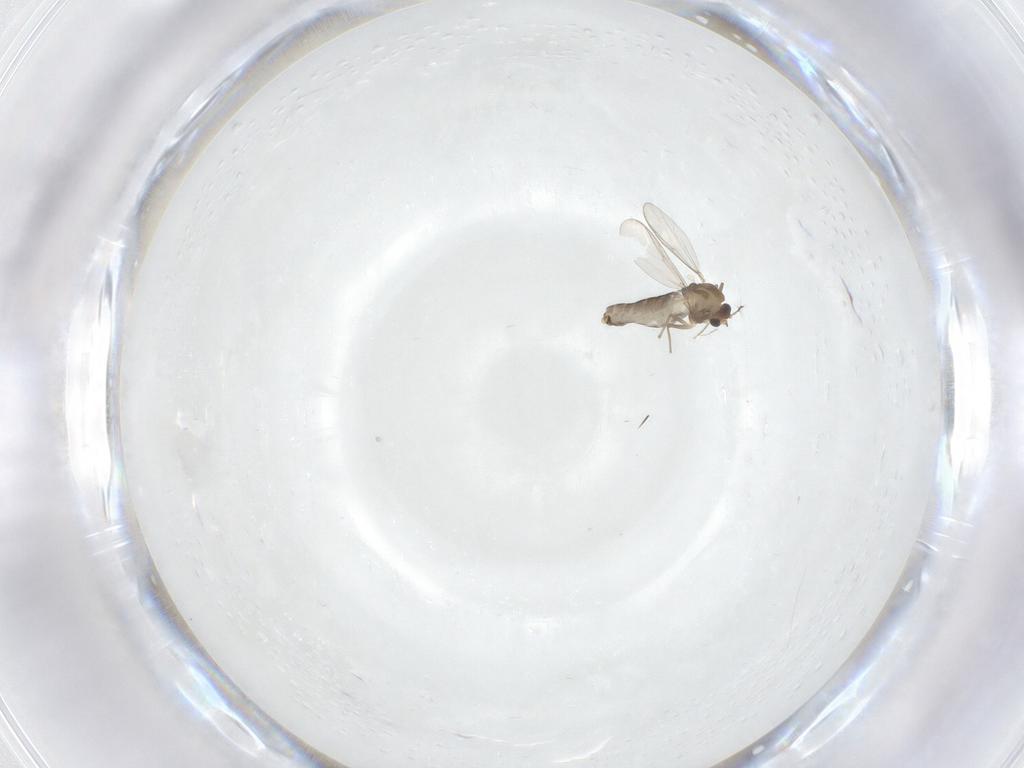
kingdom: Animalia
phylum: Arthropoda
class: Insecta
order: Diptera
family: Chironomidae
